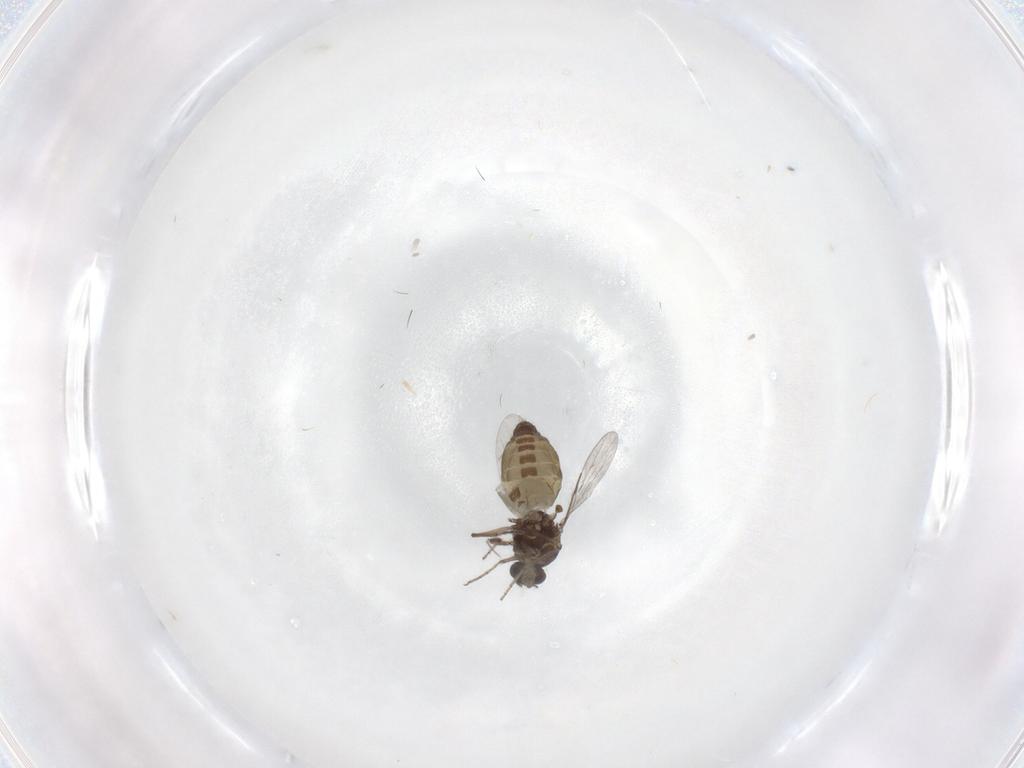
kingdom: Animalia
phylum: Arthropoda
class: Insecta
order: Diptera
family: Ceratopogonidae
